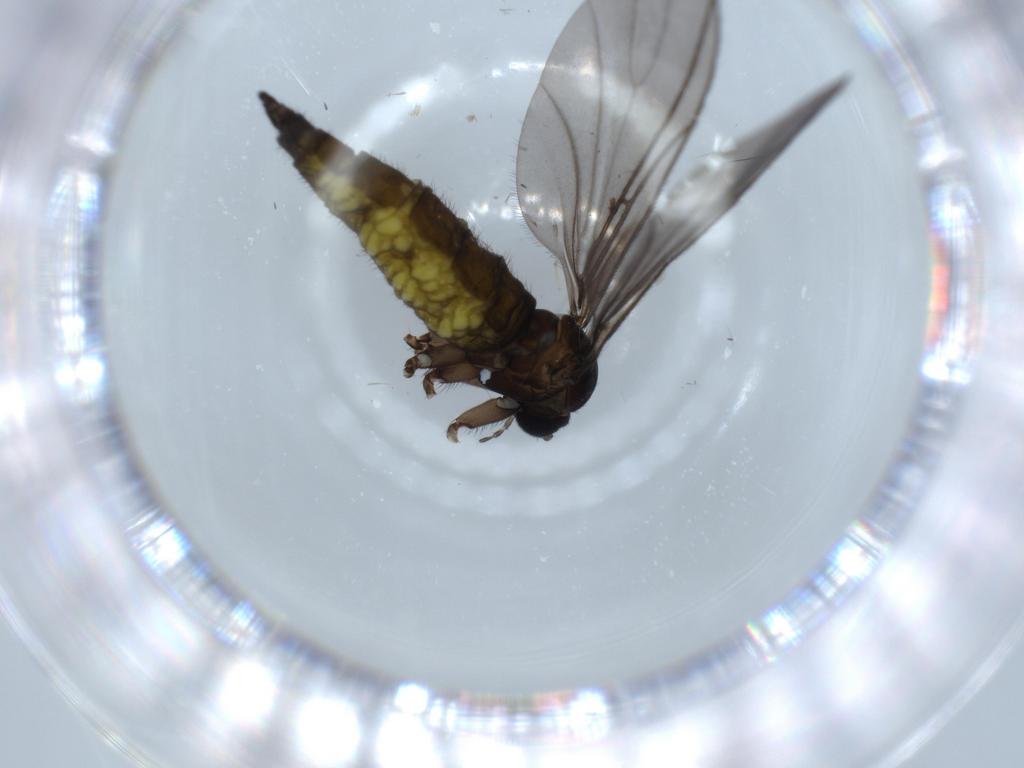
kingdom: Animalia
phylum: Arthropoda
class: Insecta
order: Diptera
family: Sciaridae
